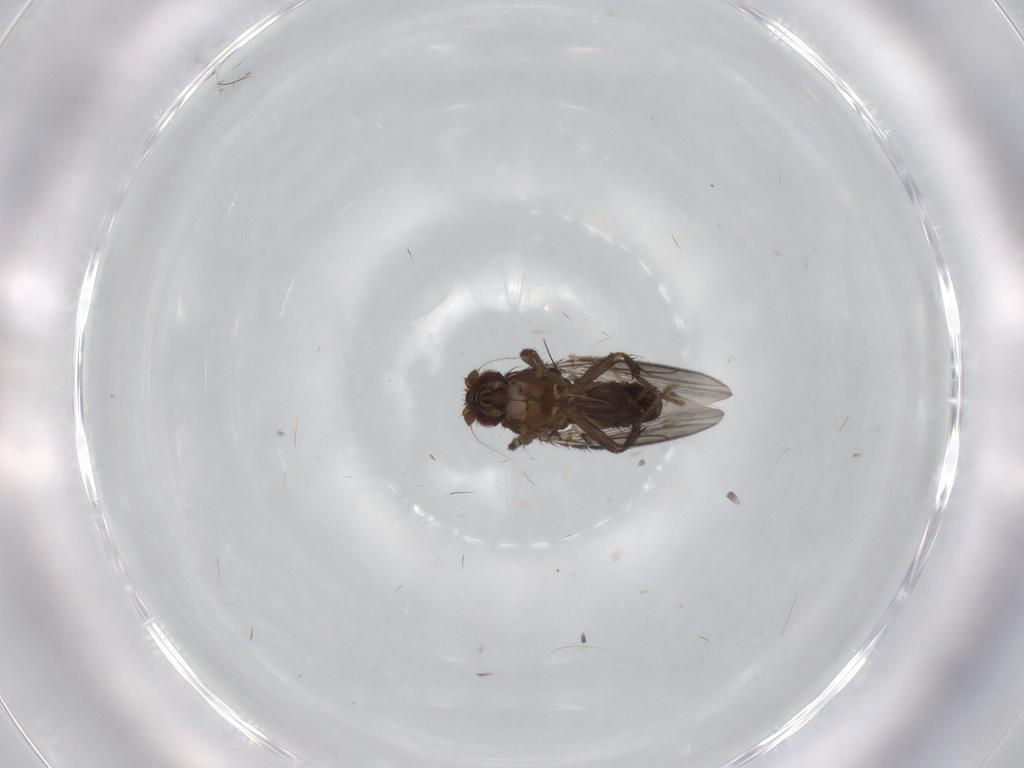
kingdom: Animalia
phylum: Arthropoda
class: Insecta
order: Diptera
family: Sphaeroceridae
